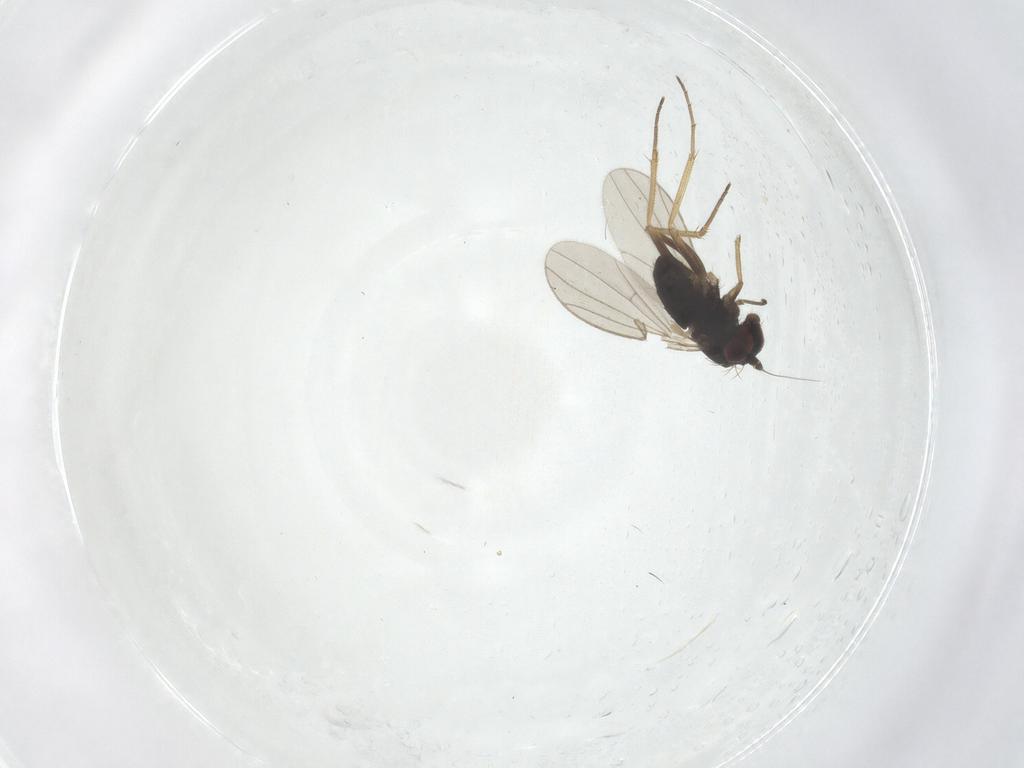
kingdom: Animalia
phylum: Arthropoda
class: Insecta
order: Diptera
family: Dolichopodidae
